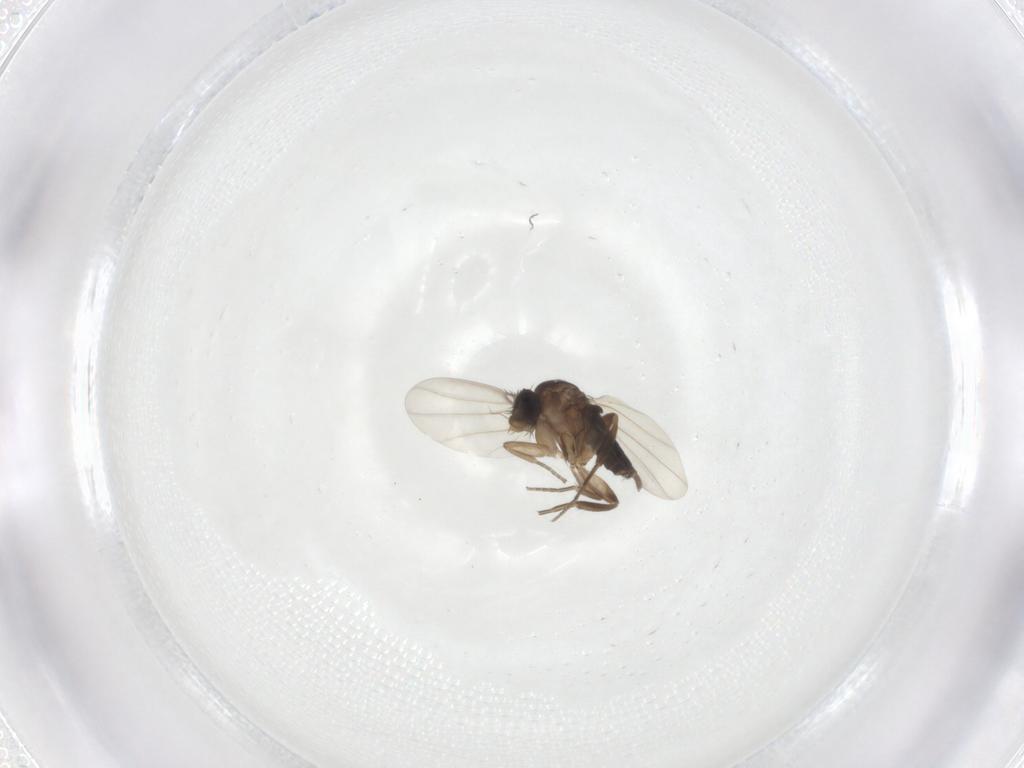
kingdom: Animalia
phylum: Arthropoda
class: Insecta
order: Diptera
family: Phoridae
